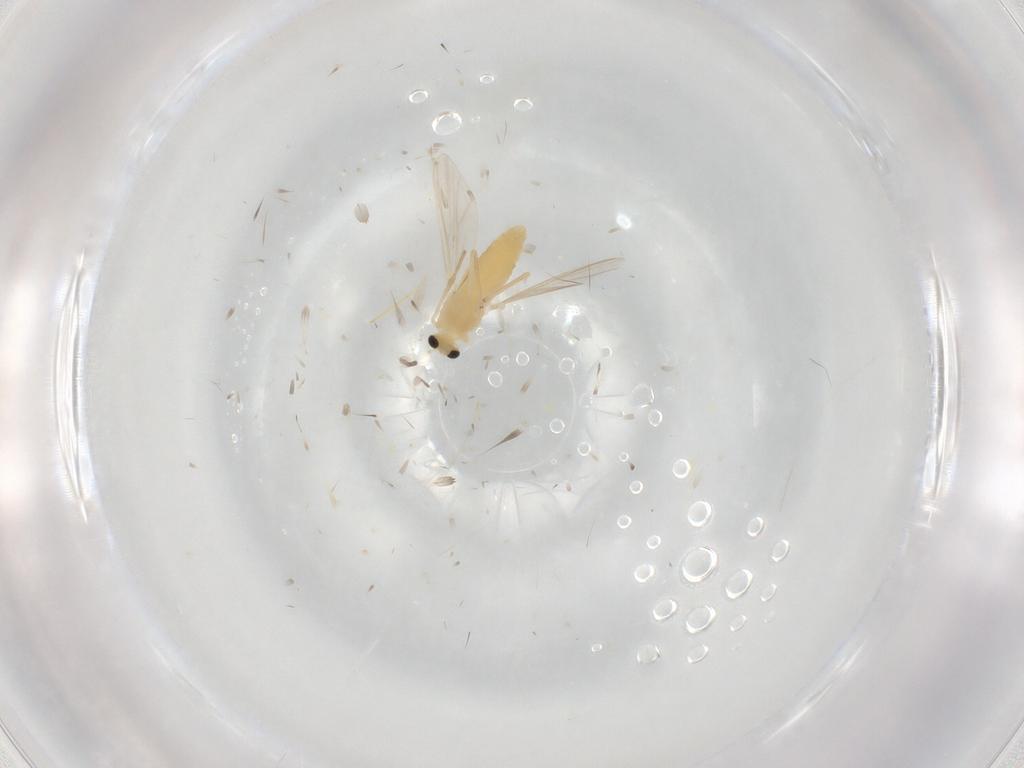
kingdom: Animalia
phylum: Arthropoda
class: Insecta
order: Diptera
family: Chironomidae
